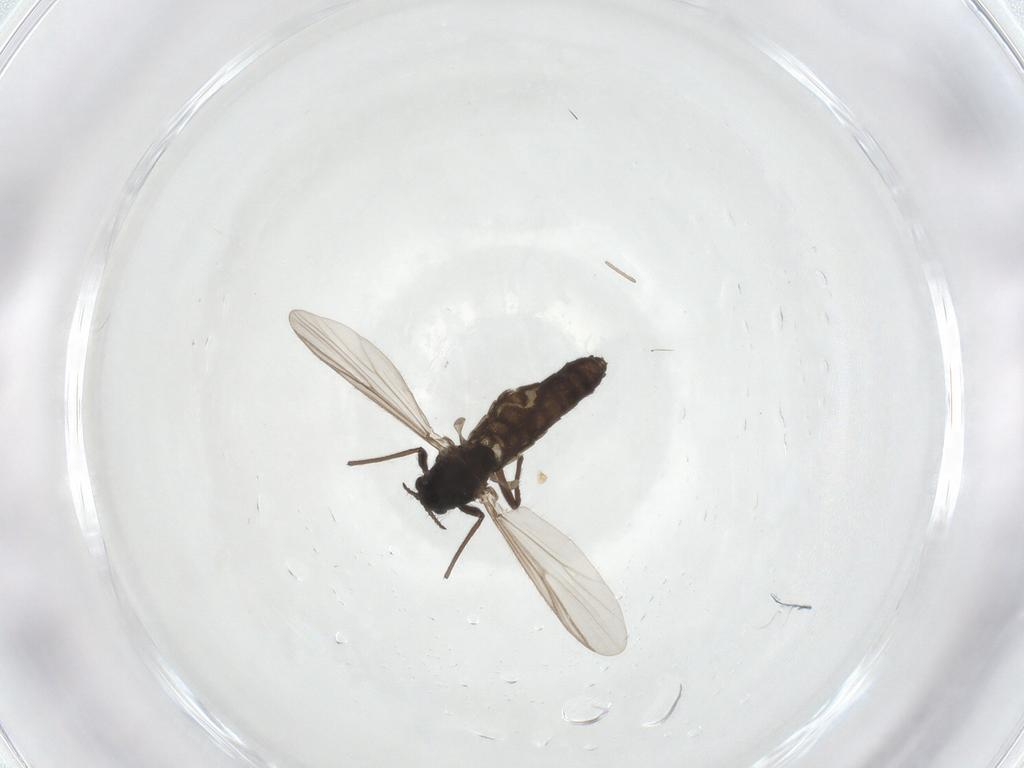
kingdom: Animalia
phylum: Arthropoda
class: Insecta
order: Diptera
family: Chironomidae
